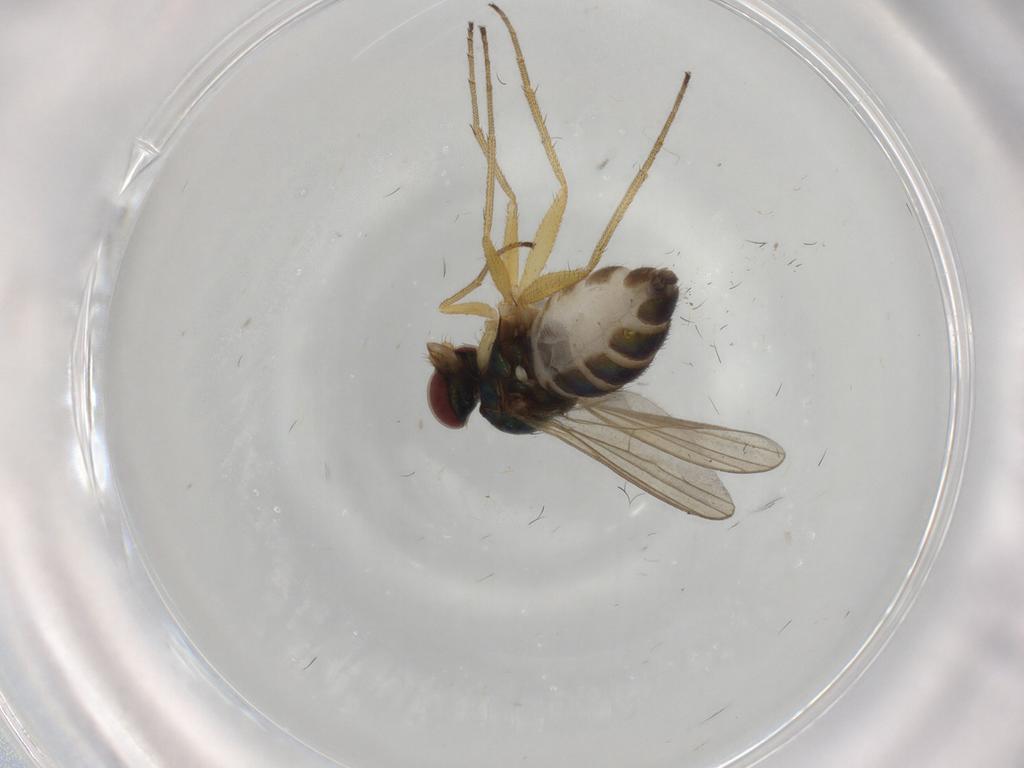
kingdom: Animalia
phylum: Arthropoda
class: Insecta
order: Diptera
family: Dolichopodidae
